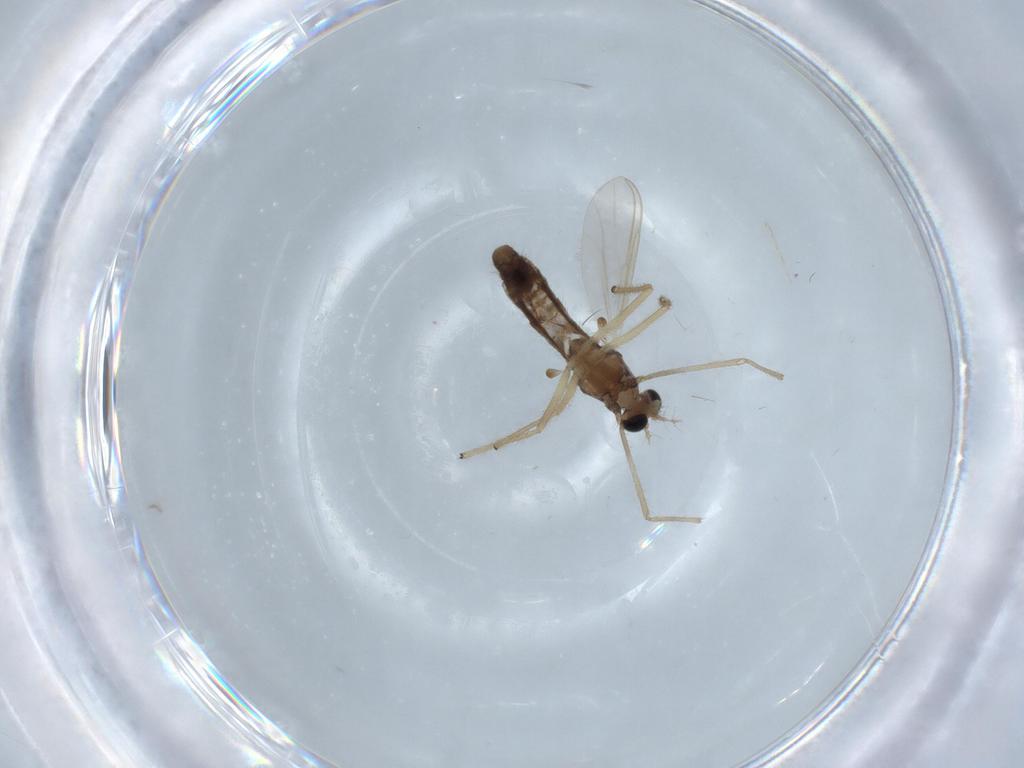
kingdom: Animalia
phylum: Arthropoda
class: Insecta
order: Diptera
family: Chironomidae
